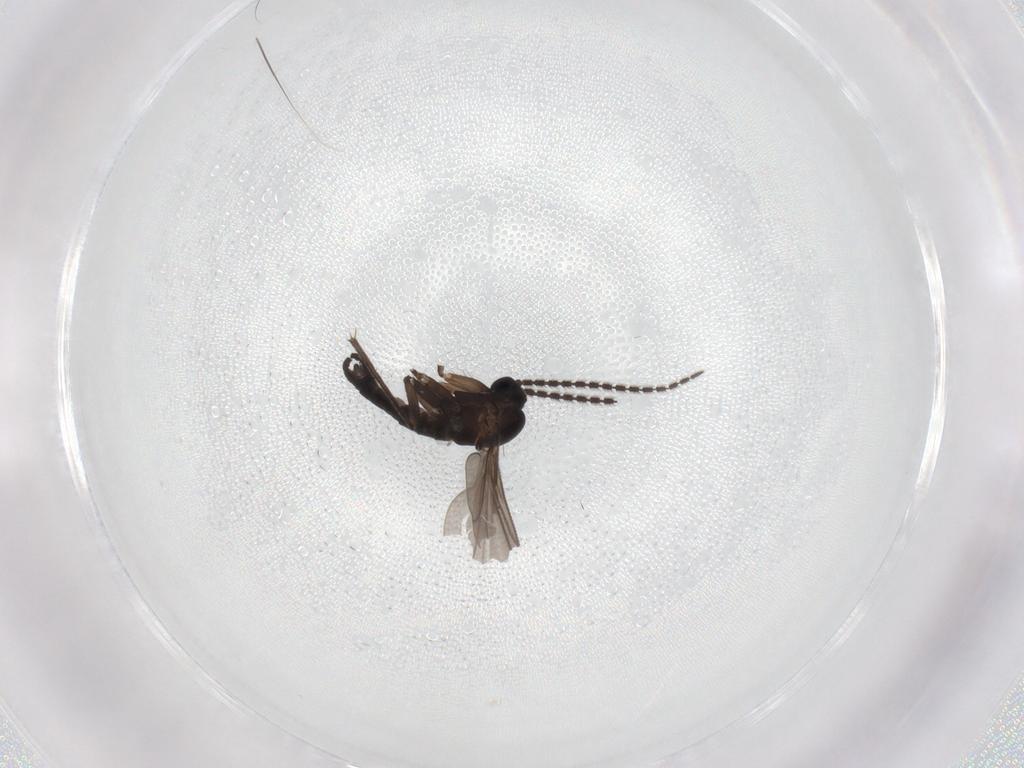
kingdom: Animalia
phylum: Arthropoda
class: Insecta
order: Diptera
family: Sciaridae
